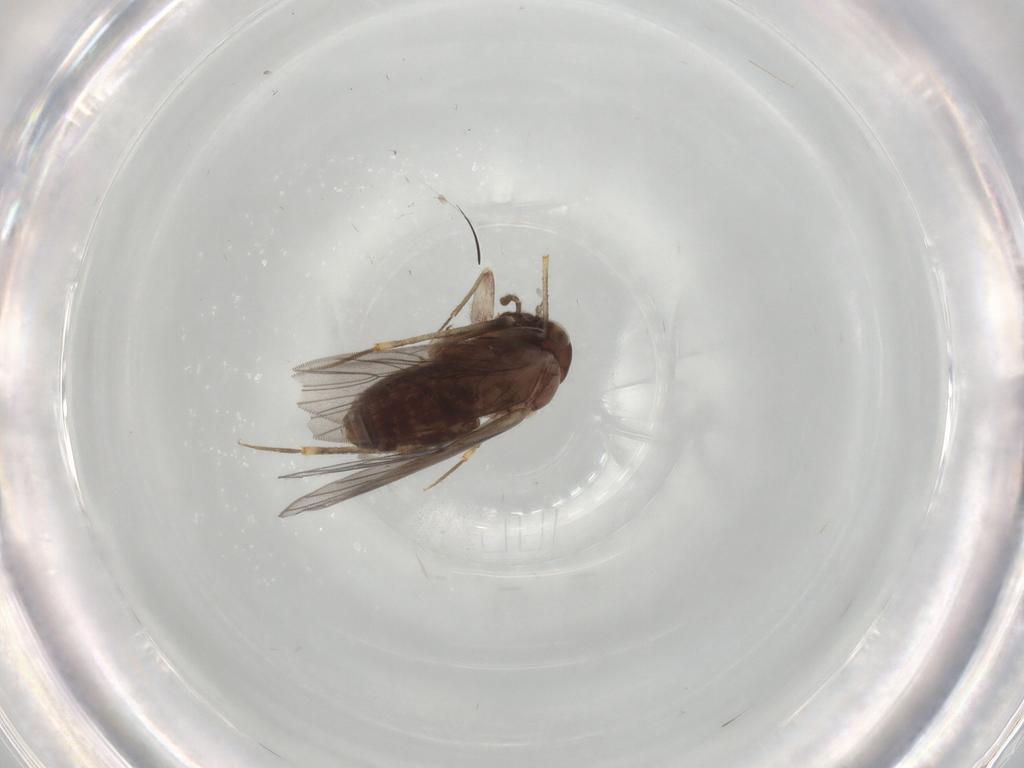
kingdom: Animalia
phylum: Arthropoda
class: Insecta
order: Hymenoptera
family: Bethylidae
